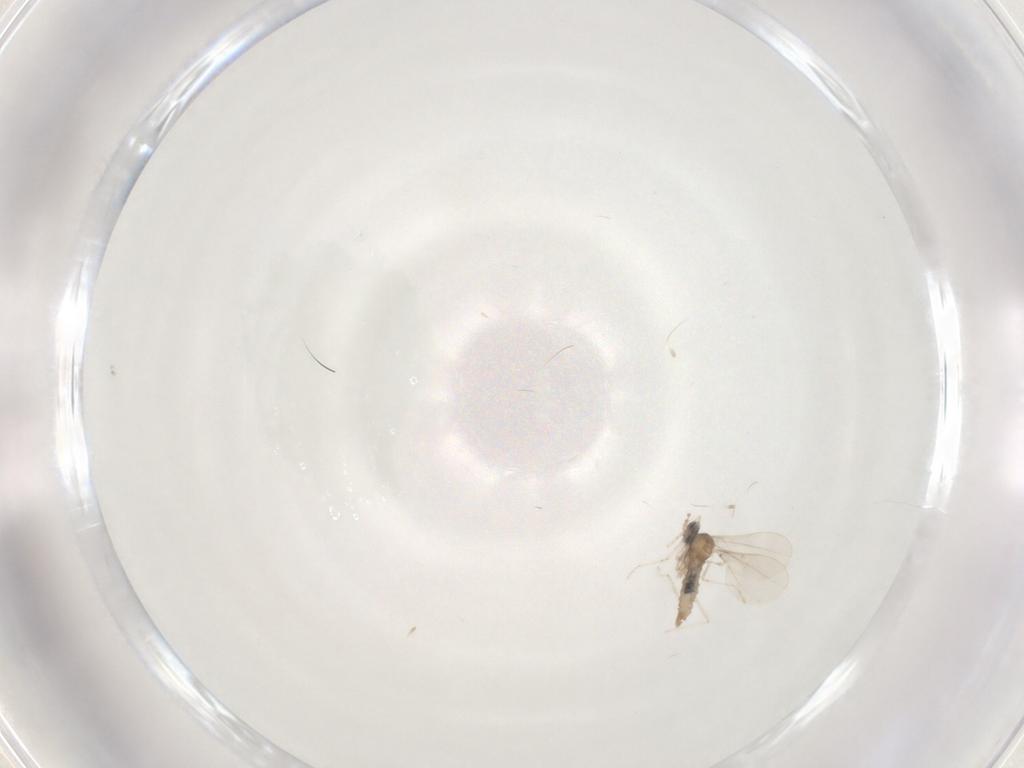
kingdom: Animalia
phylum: Arthropoda
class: Insecta
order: Diptera
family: Cecidomyiidae
